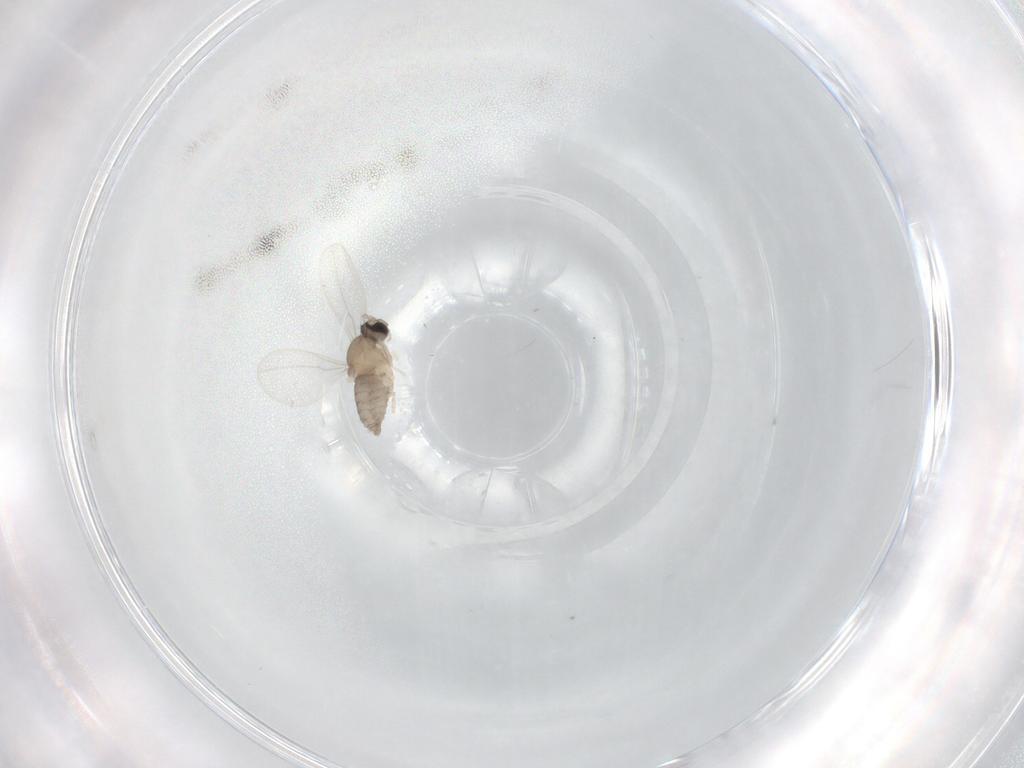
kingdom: Animalia
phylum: Arthropoda
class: Insecta
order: Diptera
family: Cecidomyiidae
